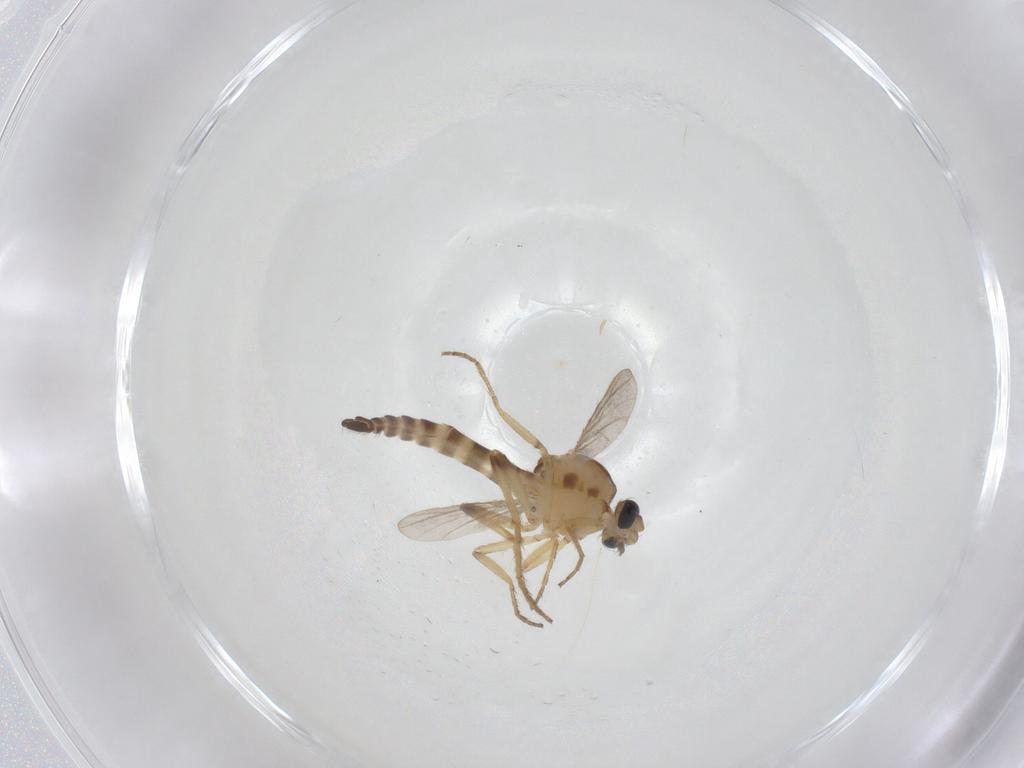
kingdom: Animalia
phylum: Arthropoda
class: Insecta
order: Diptera
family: Ceratopogonidae
